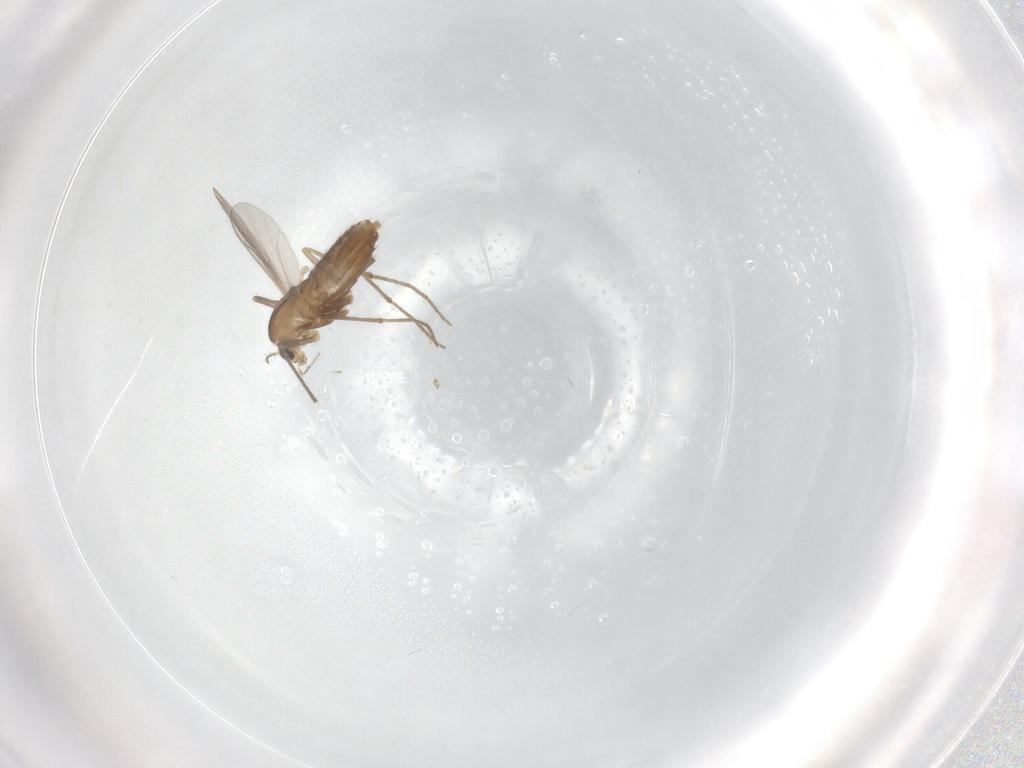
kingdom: Animalia
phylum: Arthropoda
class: Insecta
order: Diptera
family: Chironomidae
